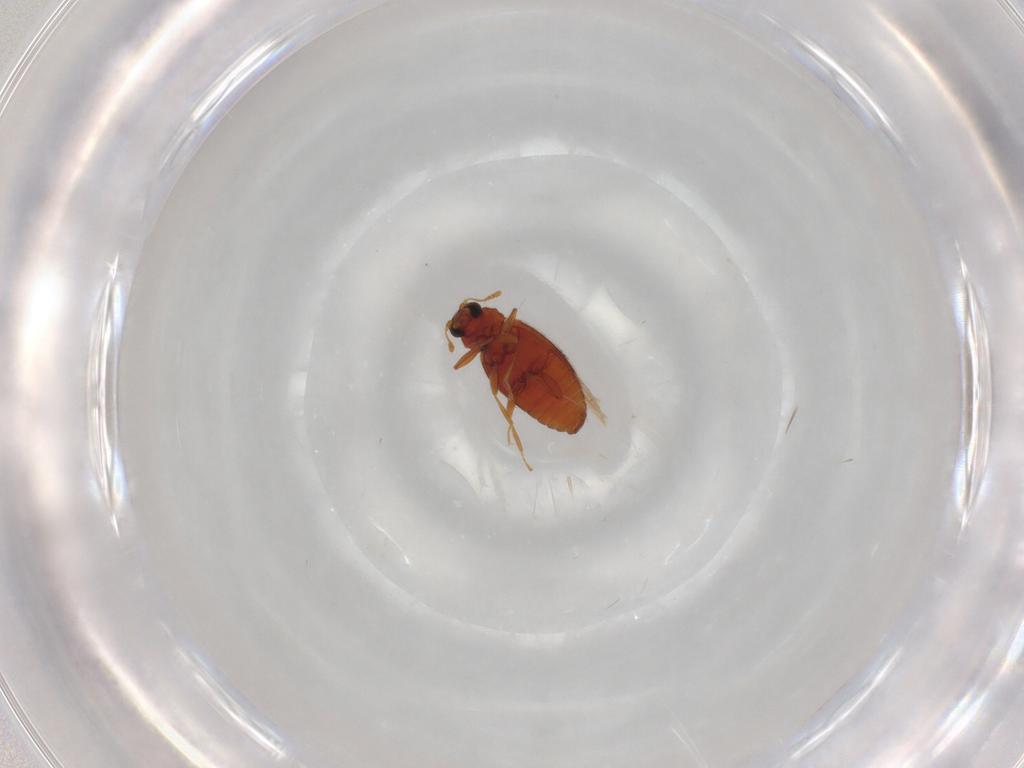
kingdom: Animalia
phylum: Arthropoda
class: Insecta
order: Coleoptera
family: Latridiidae
